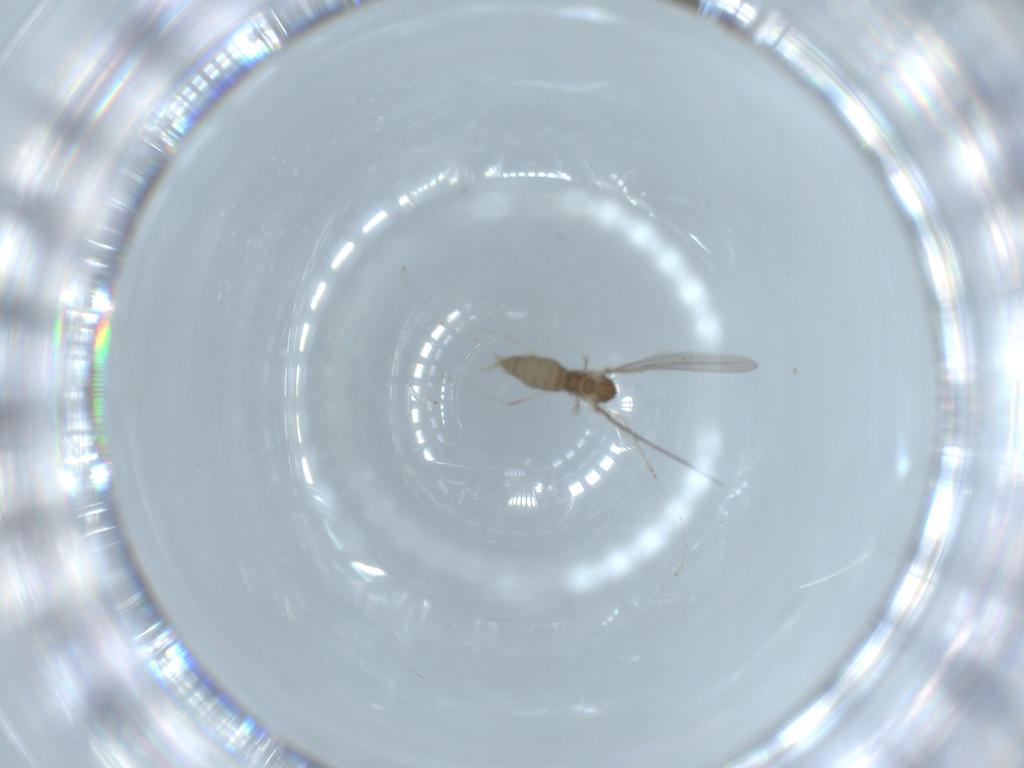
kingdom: Animalia
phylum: Arthropoda
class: Insecta
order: Diptera
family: Cecidomyiidae
